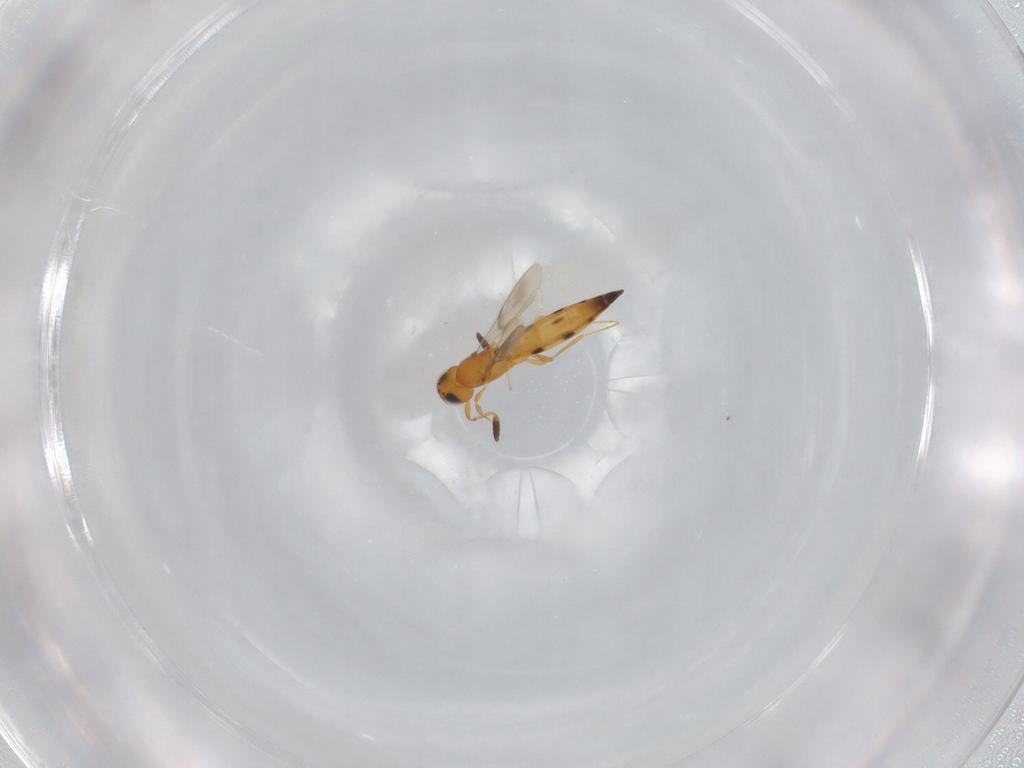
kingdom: Animalia
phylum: Arthropoda
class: Insecta
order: Hymenoptera
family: Scelionidae
